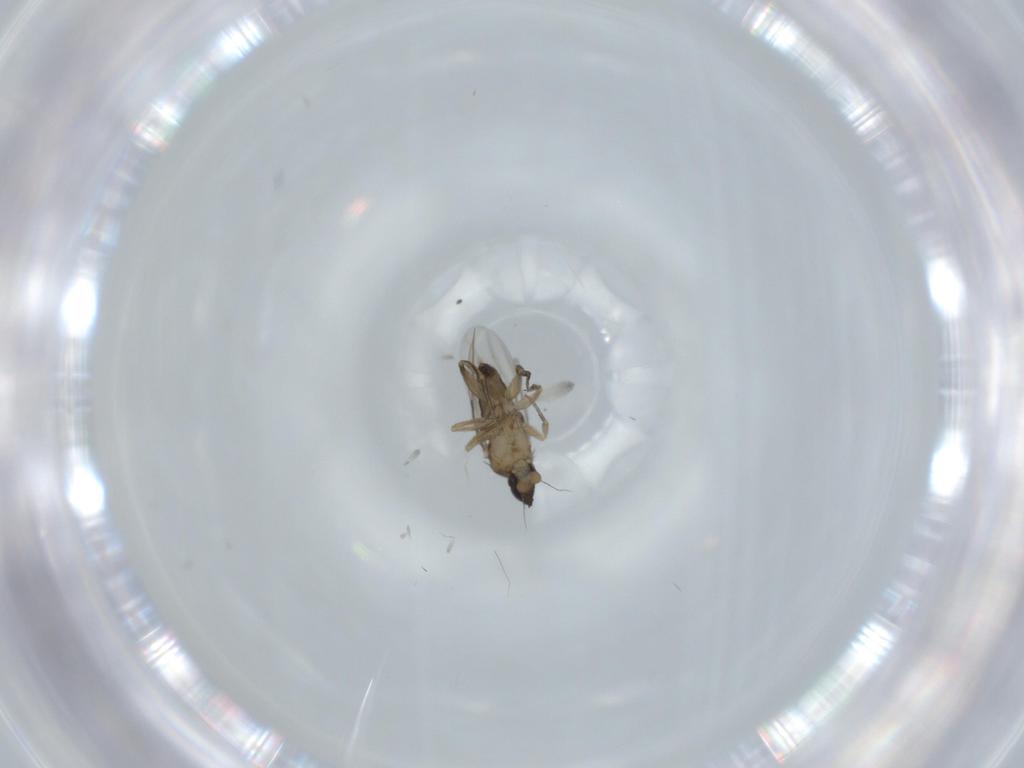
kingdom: Animalia
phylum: Arthropoda
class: Insecta
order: Diptera
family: Phoridae
